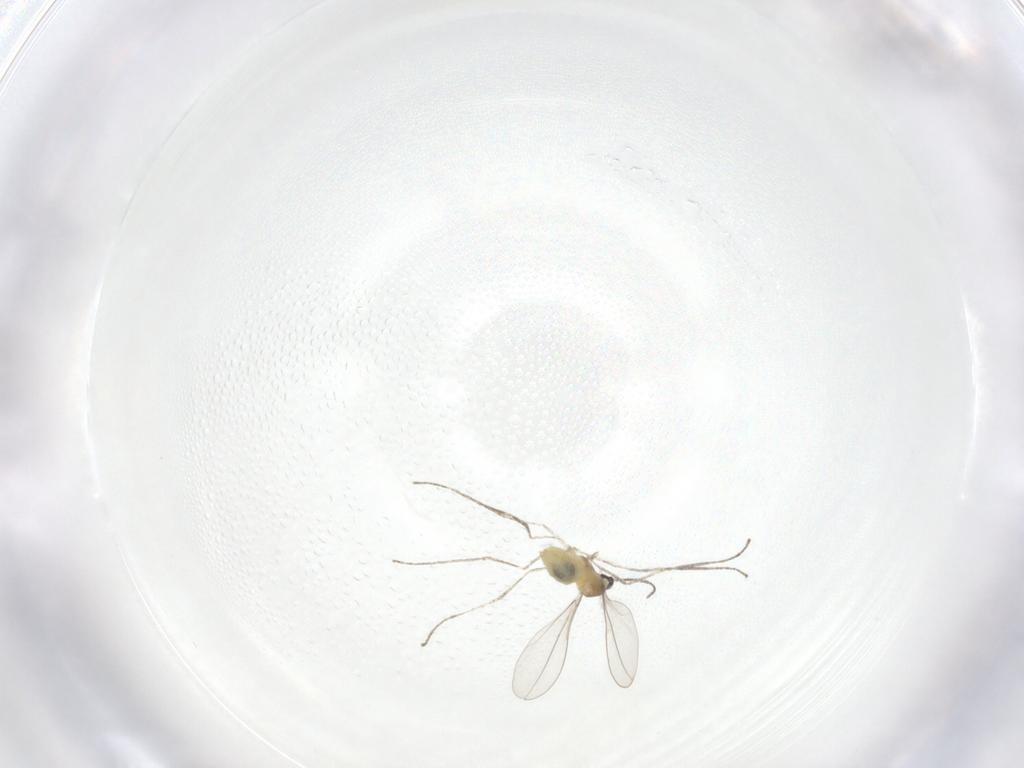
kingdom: Animalia
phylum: Arthropoda
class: Insecta
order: Diptera
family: Cecidomyiidae
